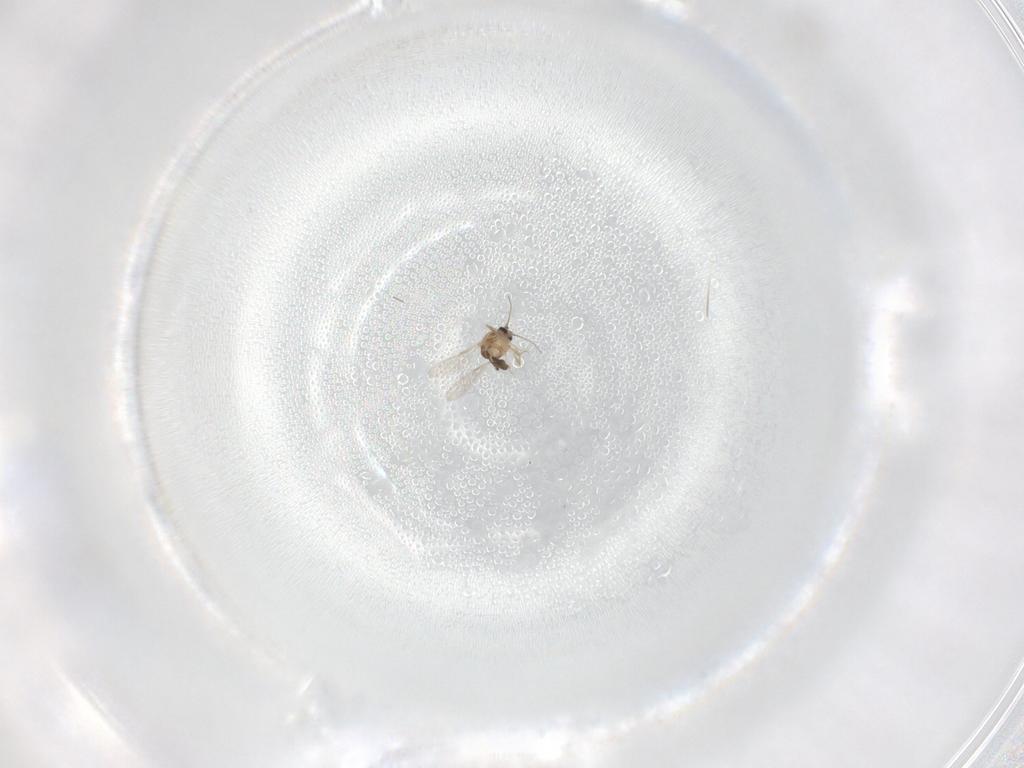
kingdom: Animalia
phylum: Arthropoda
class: Insecta
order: Diptera
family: Ceratopogonidae
